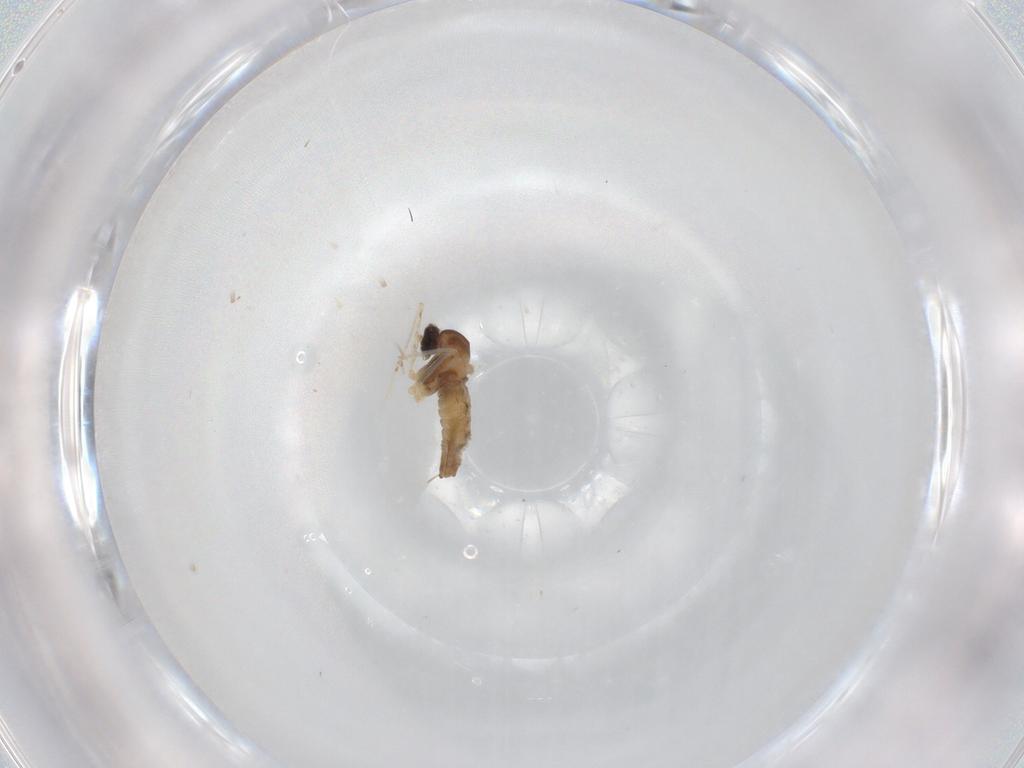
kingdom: Animalia
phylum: Arthropoda
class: Insecta
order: Diptera
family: Cecidomyiidae
